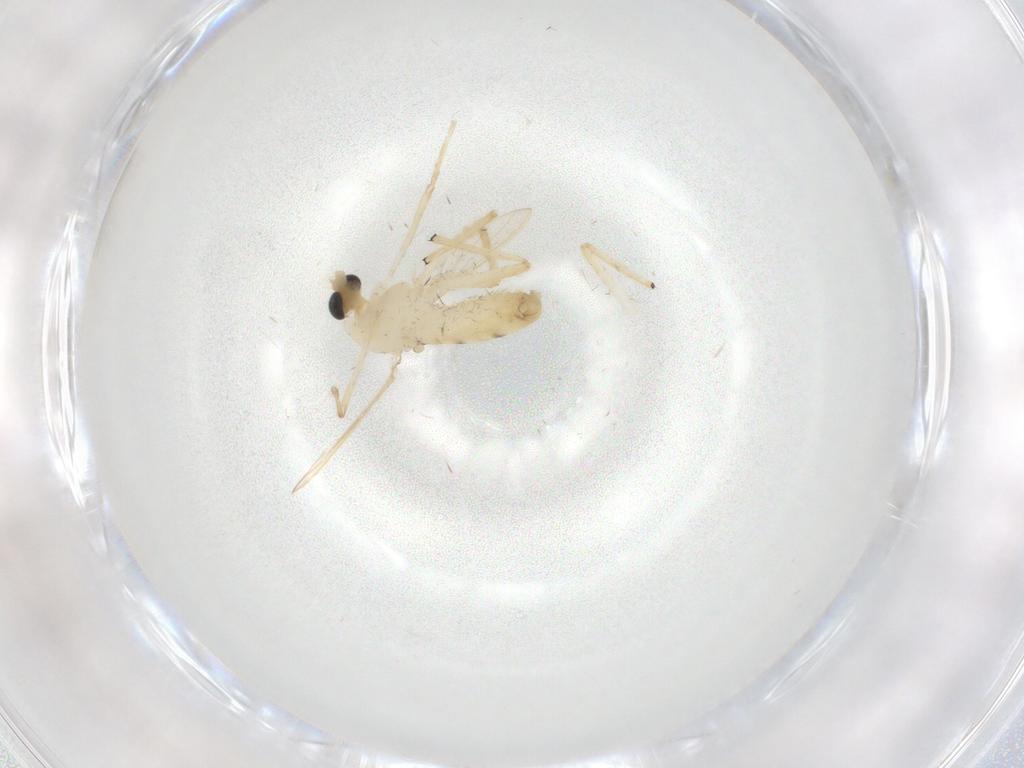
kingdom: Animalia
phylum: Arthropoda
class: Insecta
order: Diptera
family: Chironomidae
